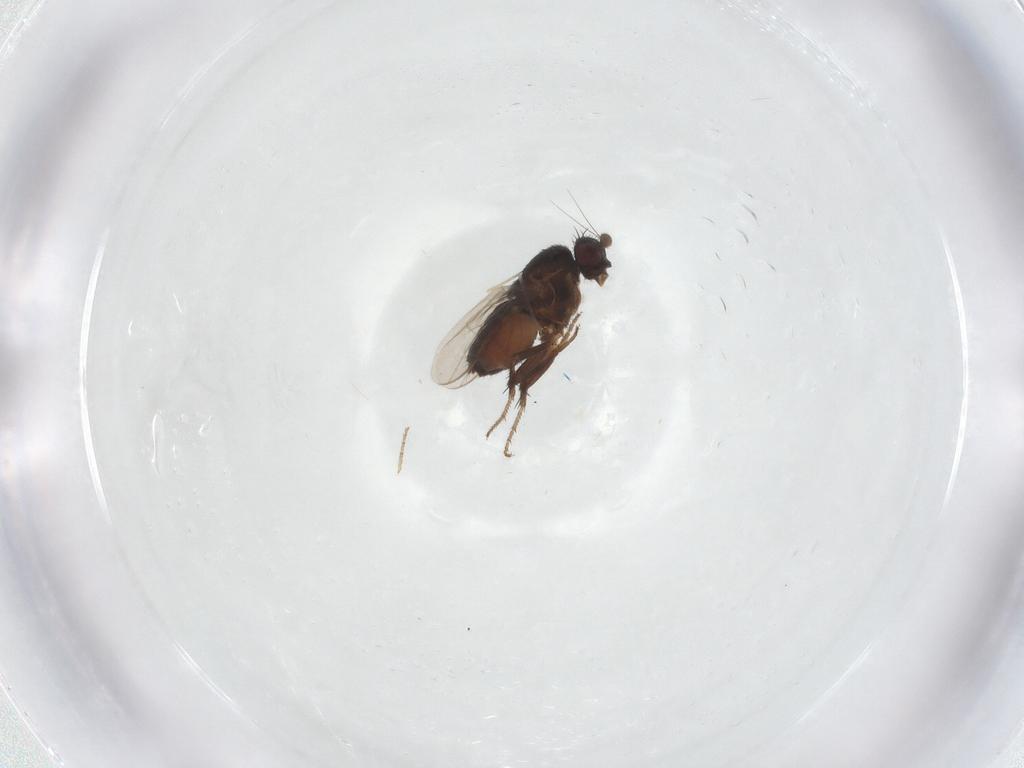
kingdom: Animalia
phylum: Arthropoda
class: Insecta
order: Diptera
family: Sphaeroceridae
